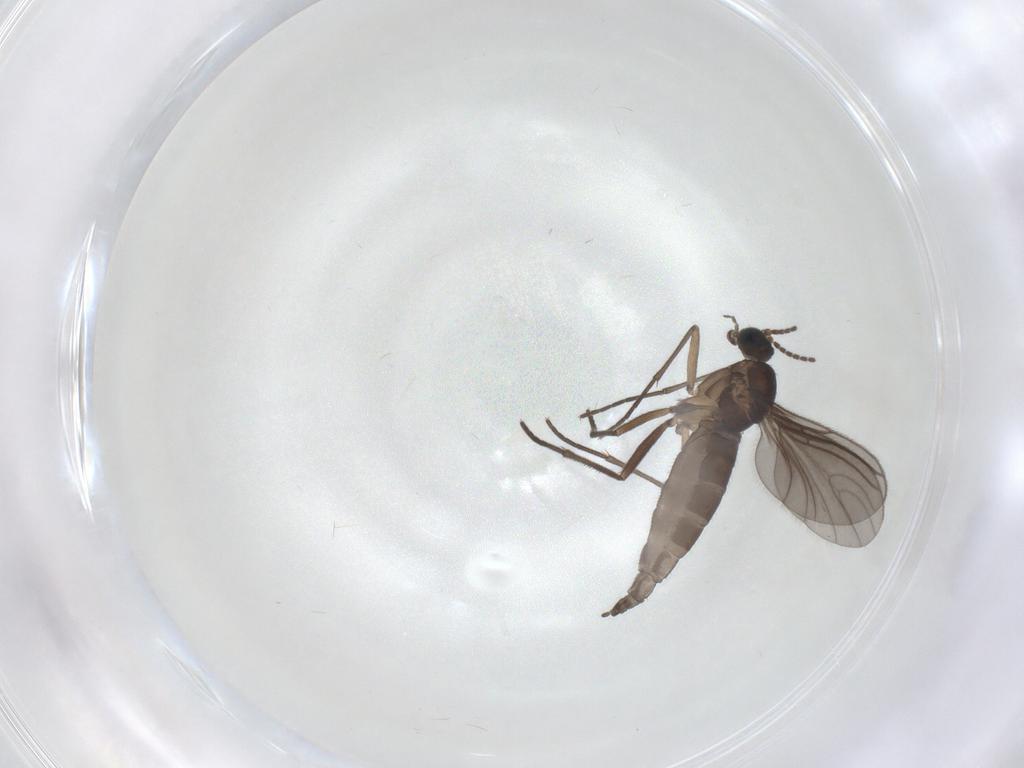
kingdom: Animalia
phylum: Arthropoda
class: Insecta
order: Diptera
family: Sciaridae
